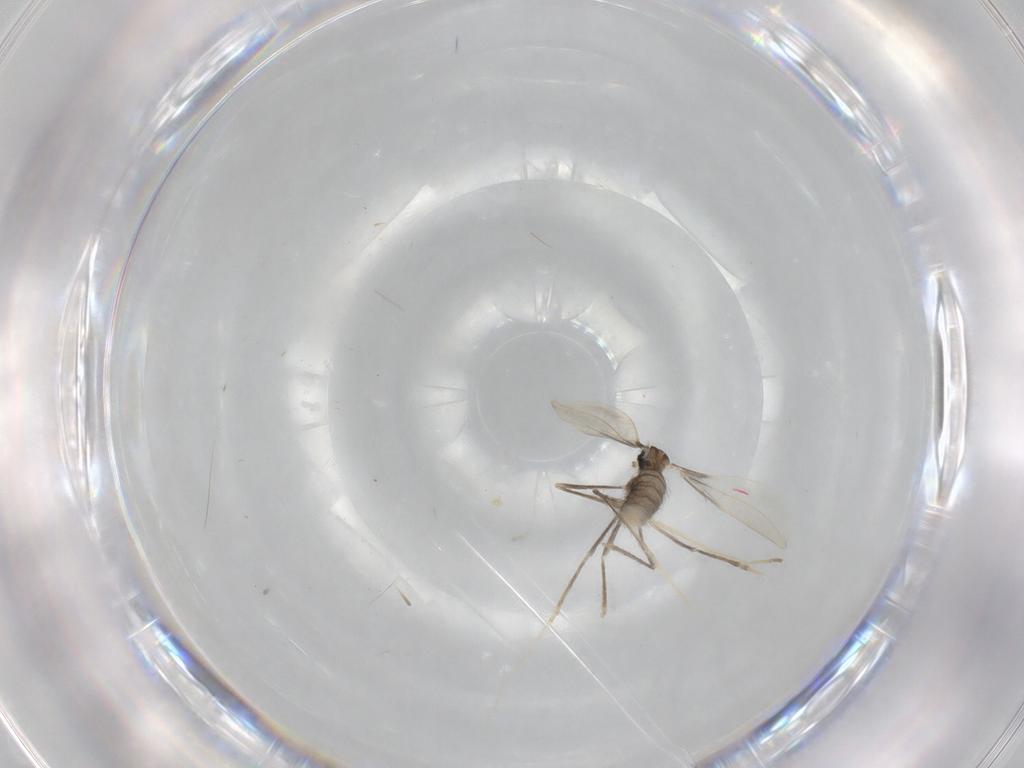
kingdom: Animalia
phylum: Arthropoda
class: Insecta
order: Diptera
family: Cecidomyiidae
